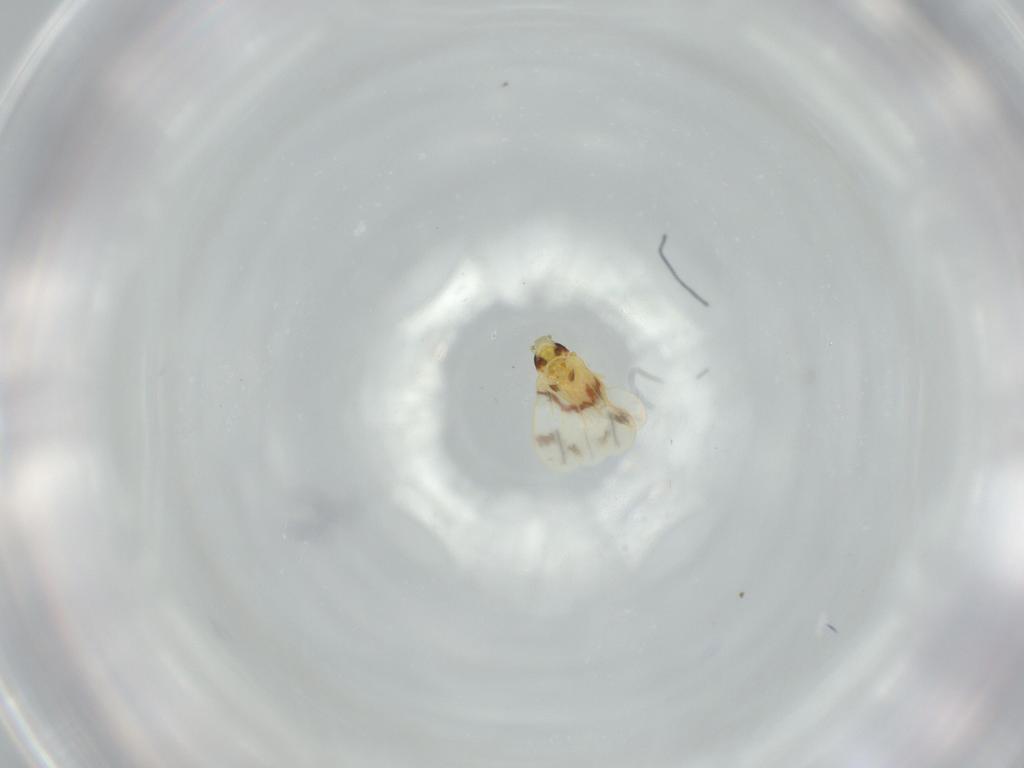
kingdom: Animalia
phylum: Arthropoda
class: Insecta
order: Hemiptera
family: Aleyrodidae
